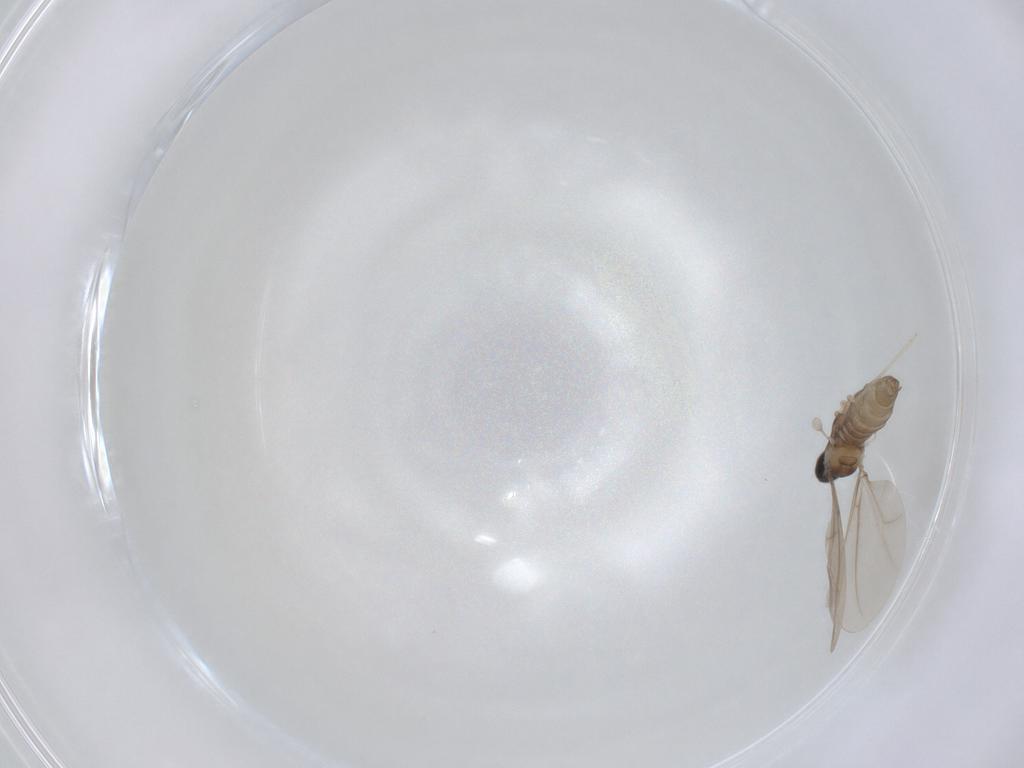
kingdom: Animalia
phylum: Arthropoda
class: Insecta
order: Diptera
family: Cecidomyiidae
